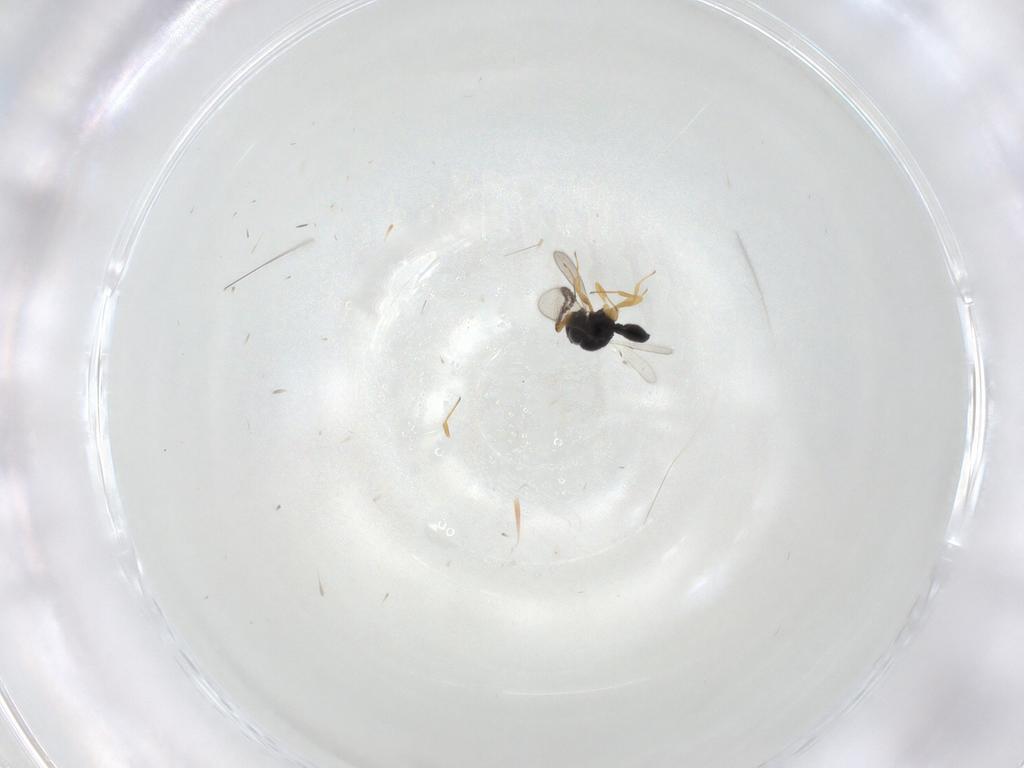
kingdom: Animalia
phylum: Arthropoda
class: Insecta
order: Hymenoptera
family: Scelionidae
